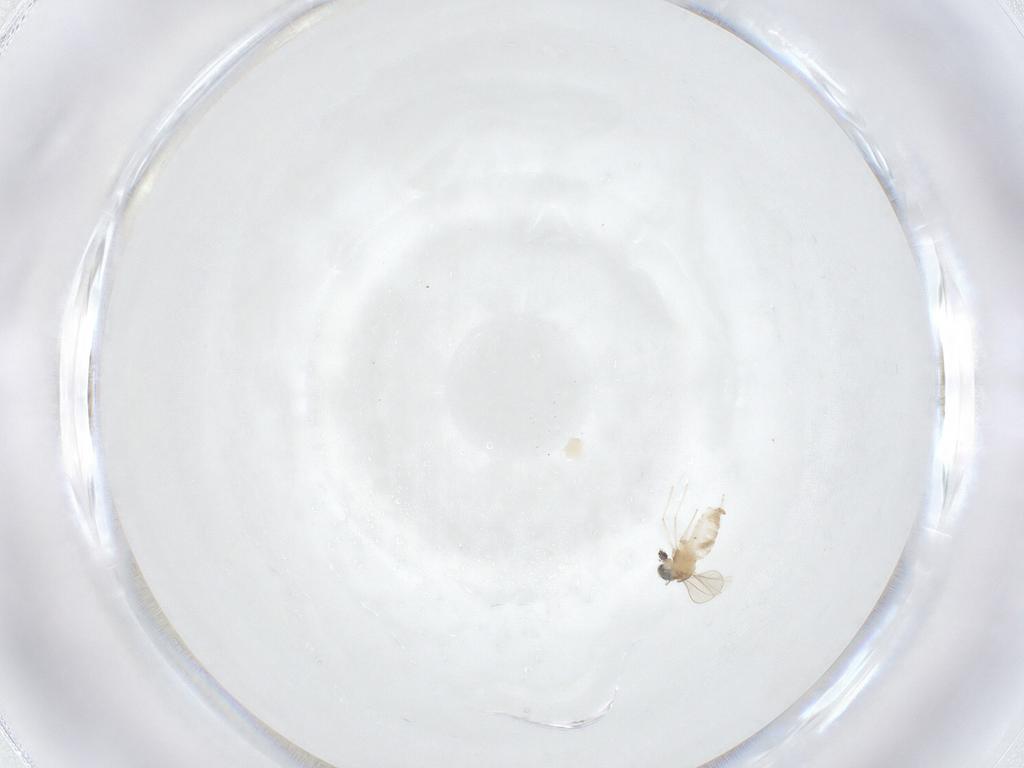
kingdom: Animalia
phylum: Arthropoda
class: Insecta
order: Diptera
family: Cecidomyiidae
